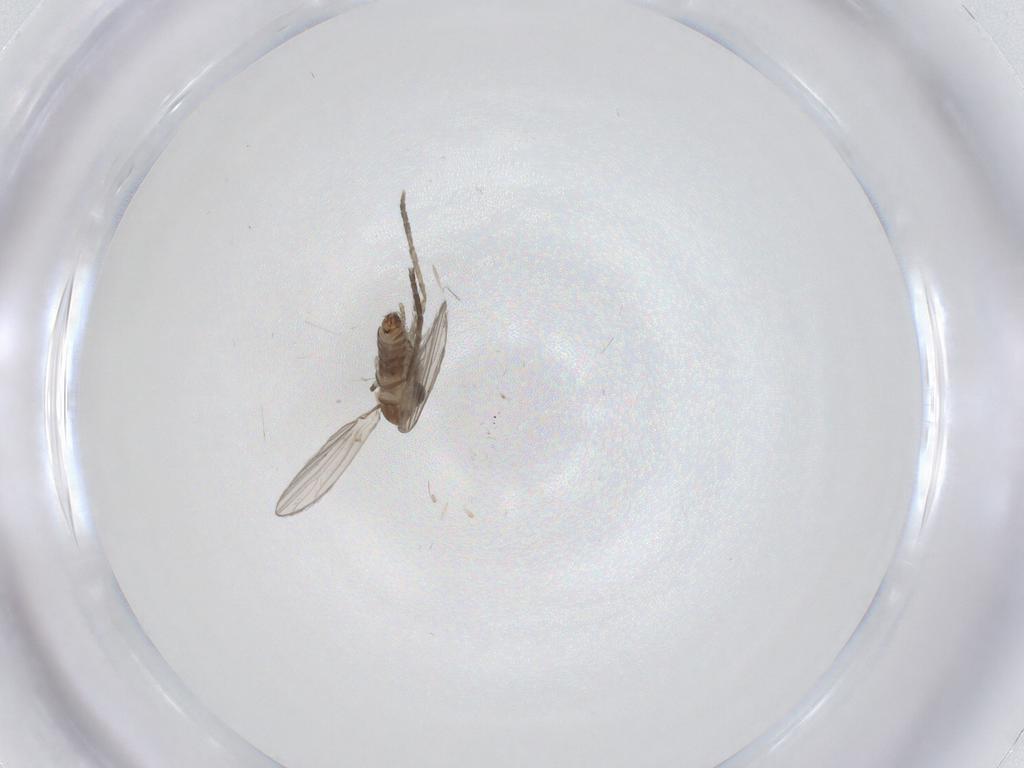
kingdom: Animalia
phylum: Arthropoda
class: Insecta
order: Diptera
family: Psychodidae
